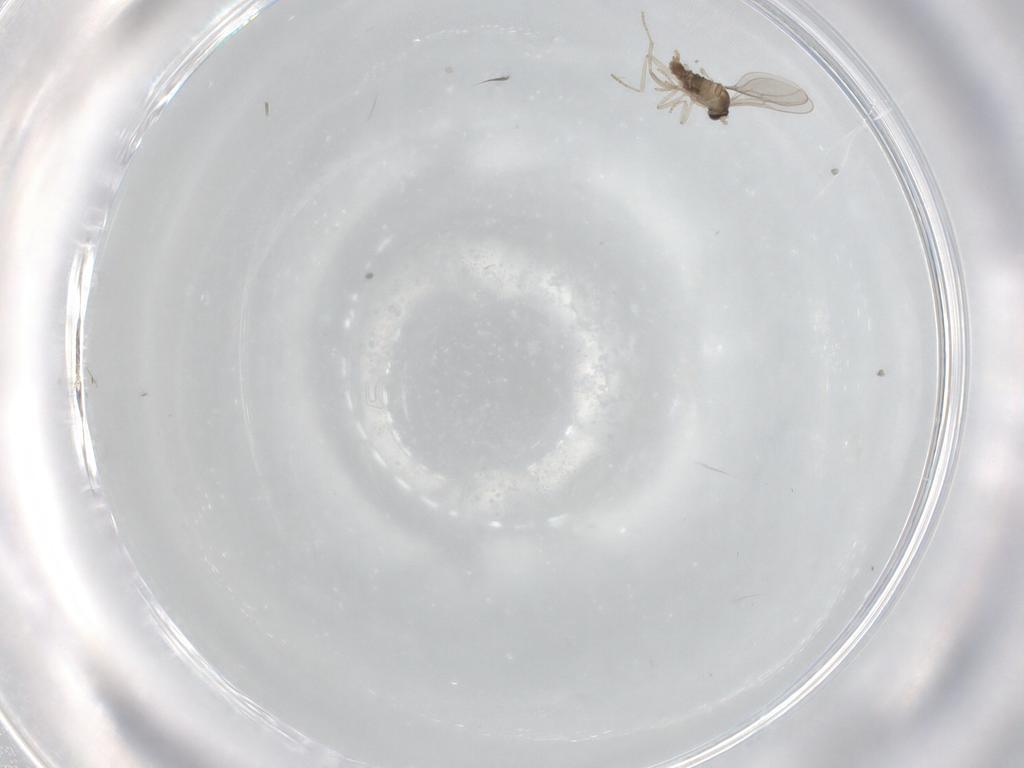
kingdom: Animalia
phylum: Arthropoda
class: Insecta
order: Diptera
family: Cecidomyiidae
